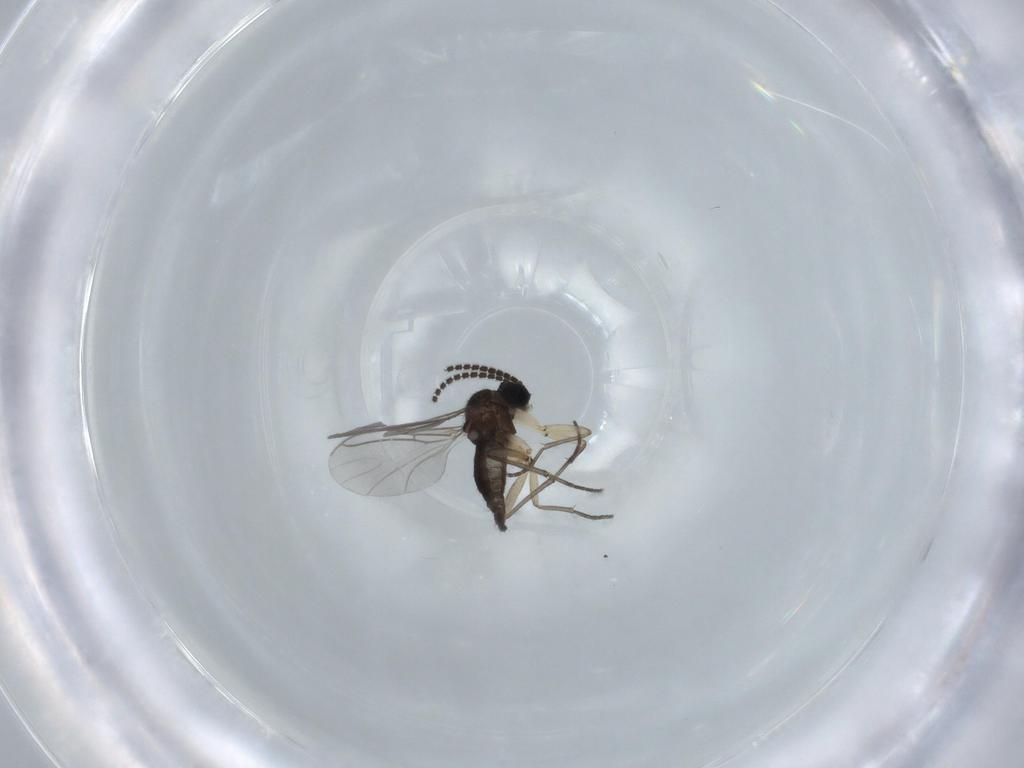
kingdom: Animalia
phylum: Arthropoda
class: Insecta
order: Diptera
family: Sciaridae
